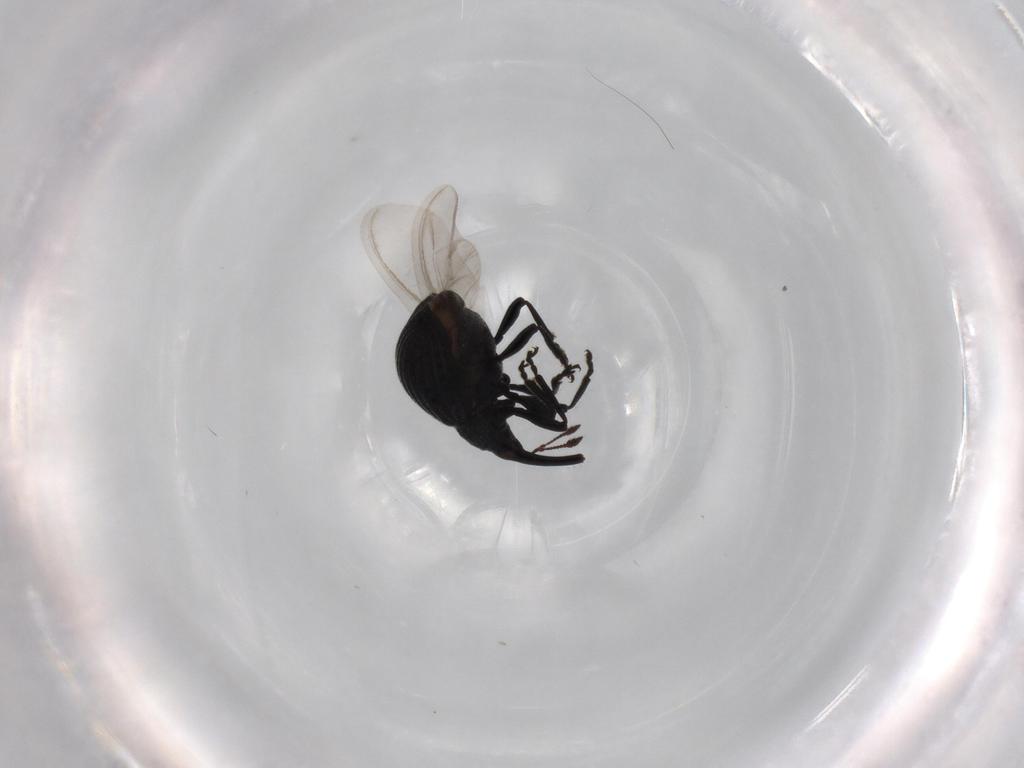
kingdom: Animalia
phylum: Arthropoda
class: Insecta
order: Coleoptera
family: Brentidae
